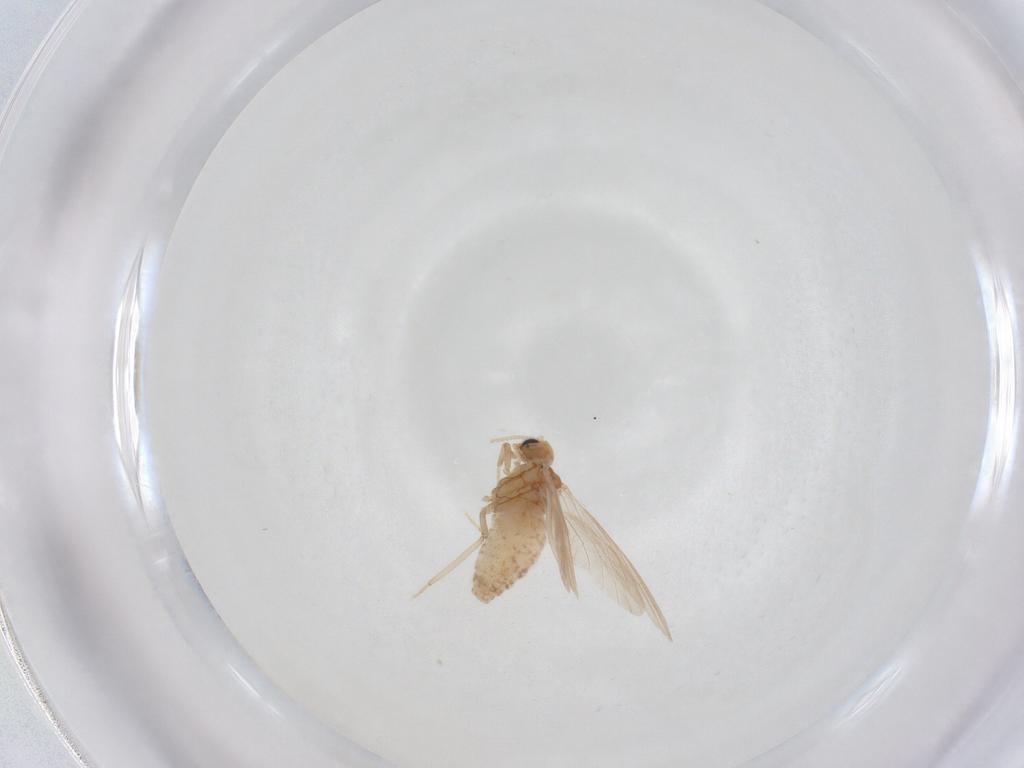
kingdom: Animalia
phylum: Arthropoda
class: Insecta
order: Neuroptera
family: Coniopterygidae
